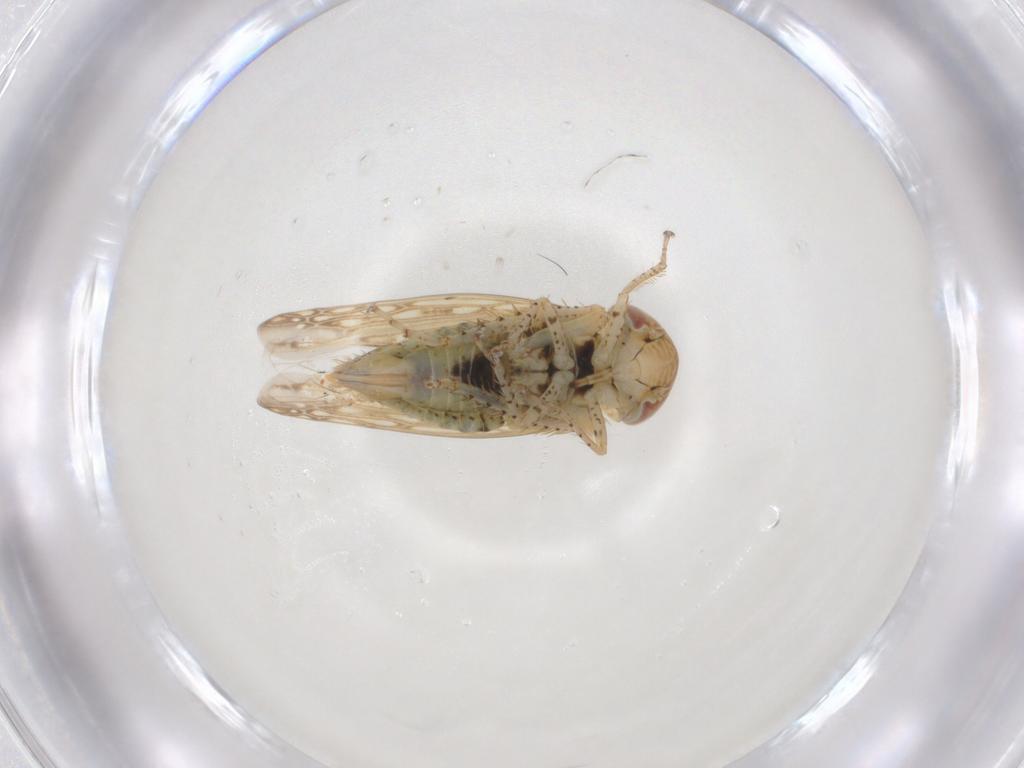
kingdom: Animalia
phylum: Arthropoda
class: Insecta
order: Hemiptera
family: Cicadellidae
